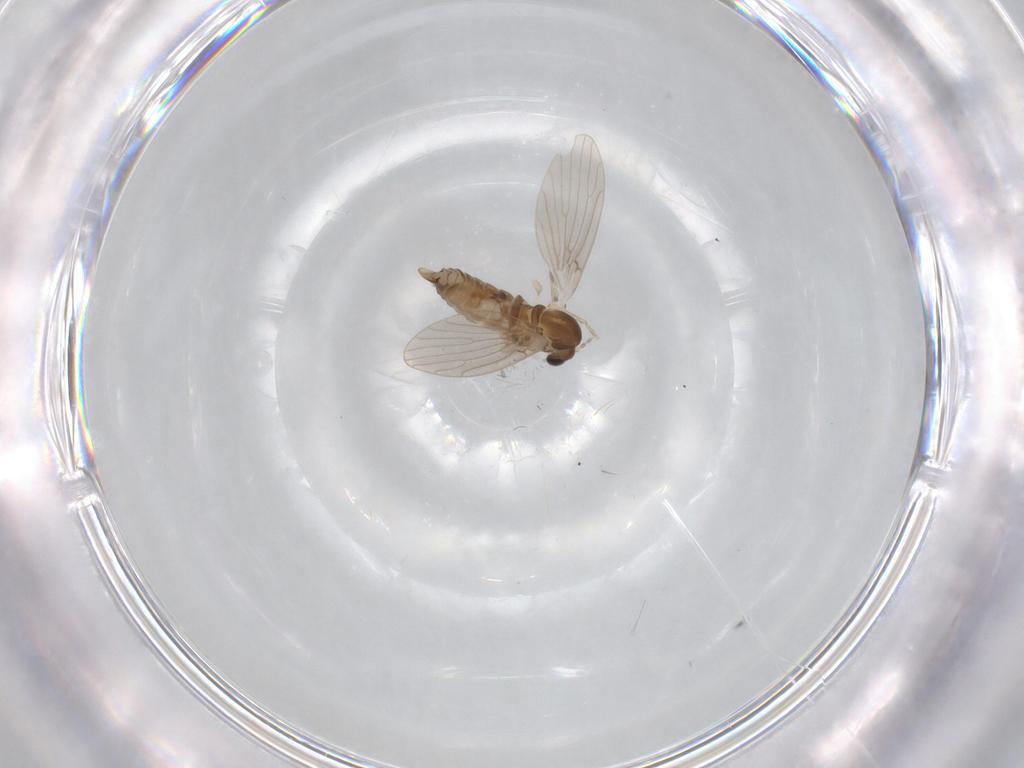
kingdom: Animalia
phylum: Arthropoda
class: Insecta
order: Diptera
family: Psychodidae
